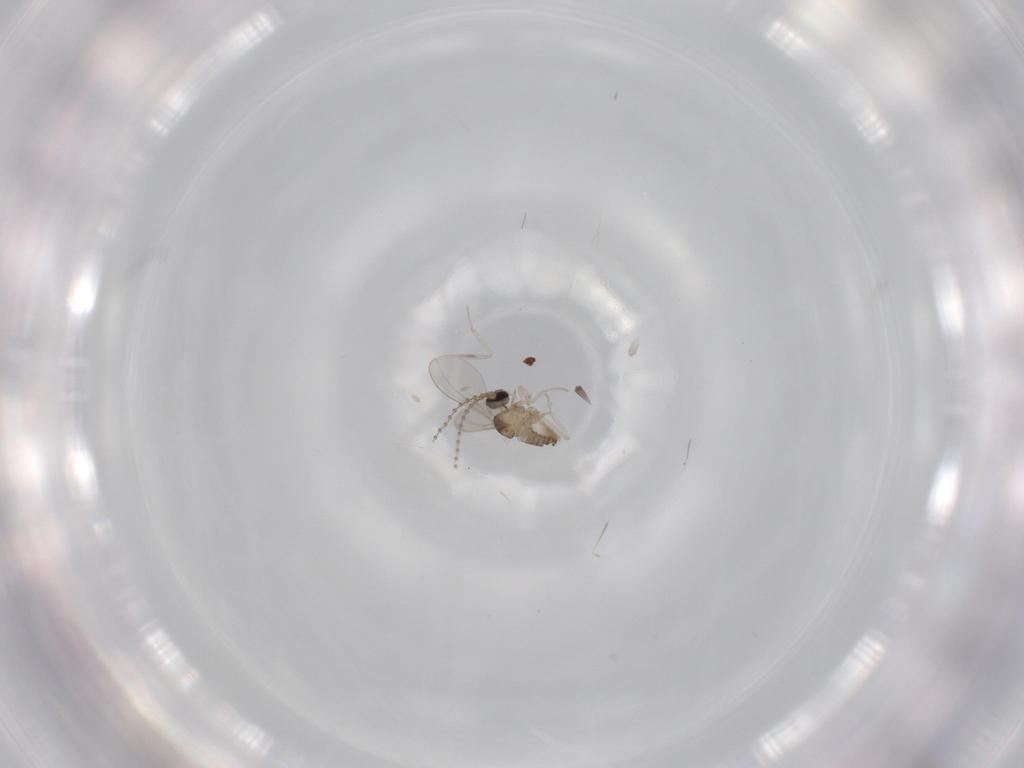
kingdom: Animalia
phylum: Arthropoda
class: Insecta
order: Diptera
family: Cecidomyiidae
